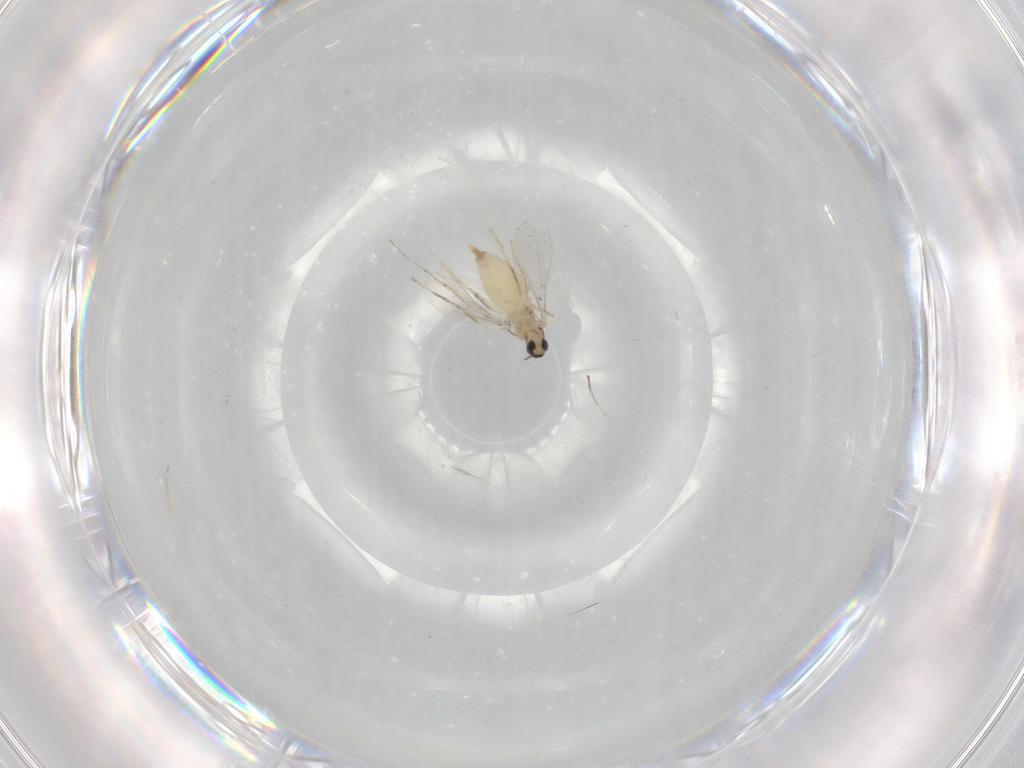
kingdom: Animalia
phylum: Arthropoda
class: Insecta
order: Diptera
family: Cecidomyiidae
